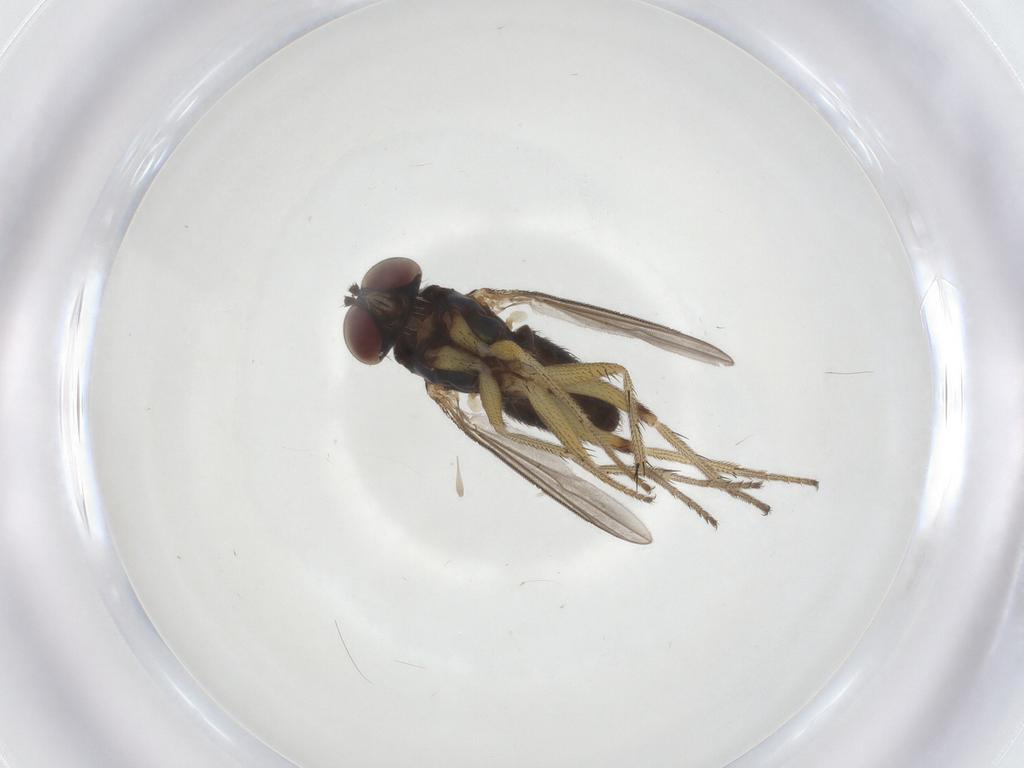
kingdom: Animalia
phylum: Arthropoda
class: Insecta
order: Diptera
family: Dolichopodidae
